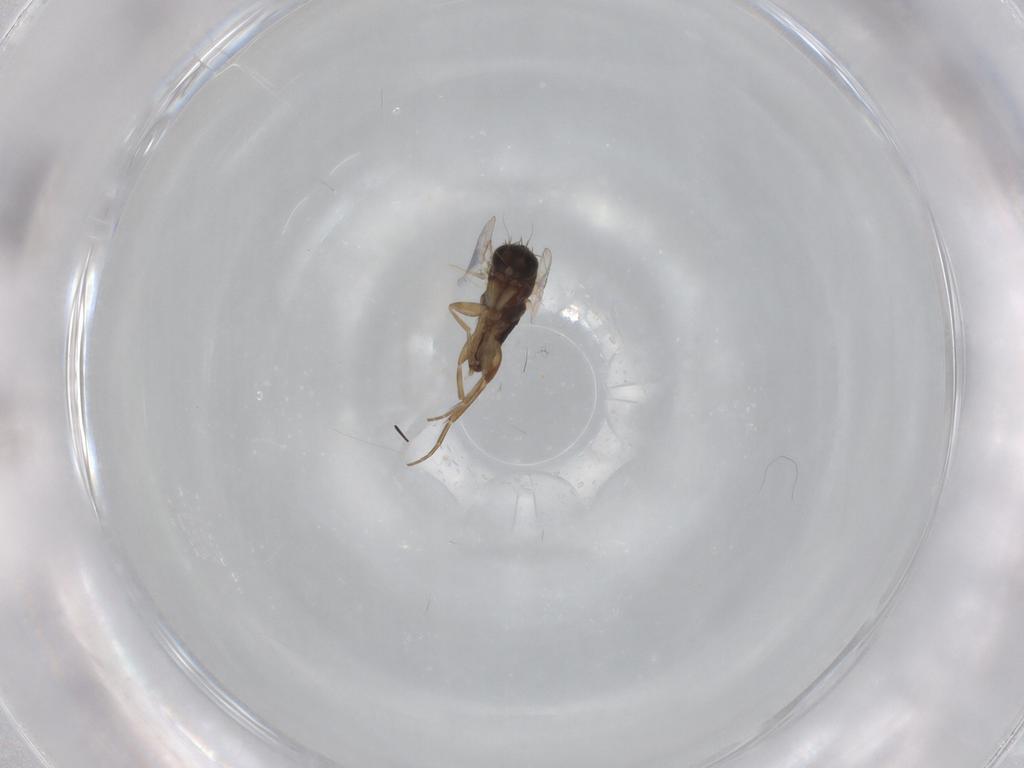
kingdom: Animalia
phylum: Arthropoda
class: Insecta
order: Diptera
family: Phoridae
